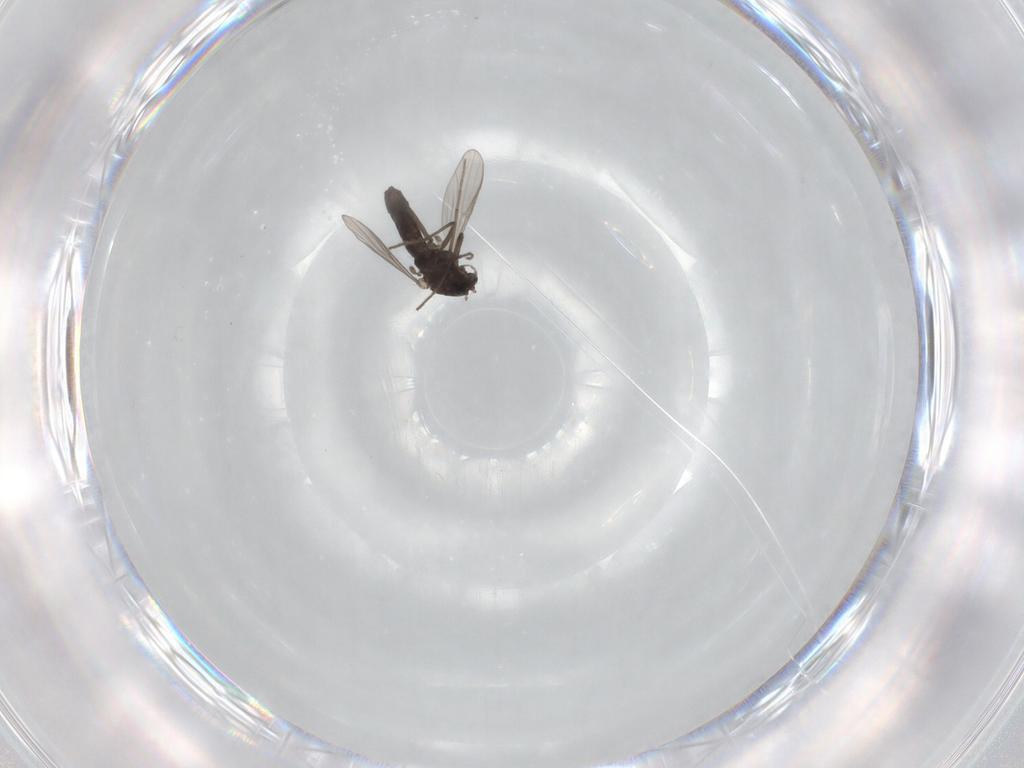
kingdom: Animalia
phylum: Arthropoda
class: Insecta
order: Diptera
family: Chironomidae
